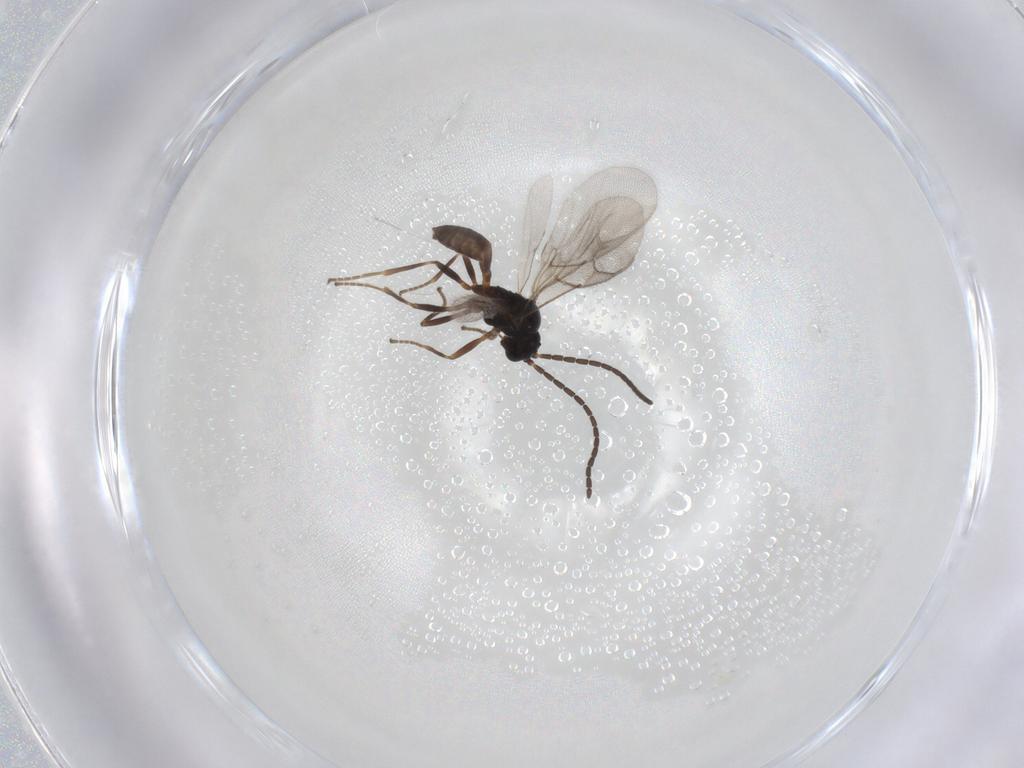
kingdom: Animalia
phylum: Arthropoda
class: Insecta
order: Hymenoptera
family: Braconidae
